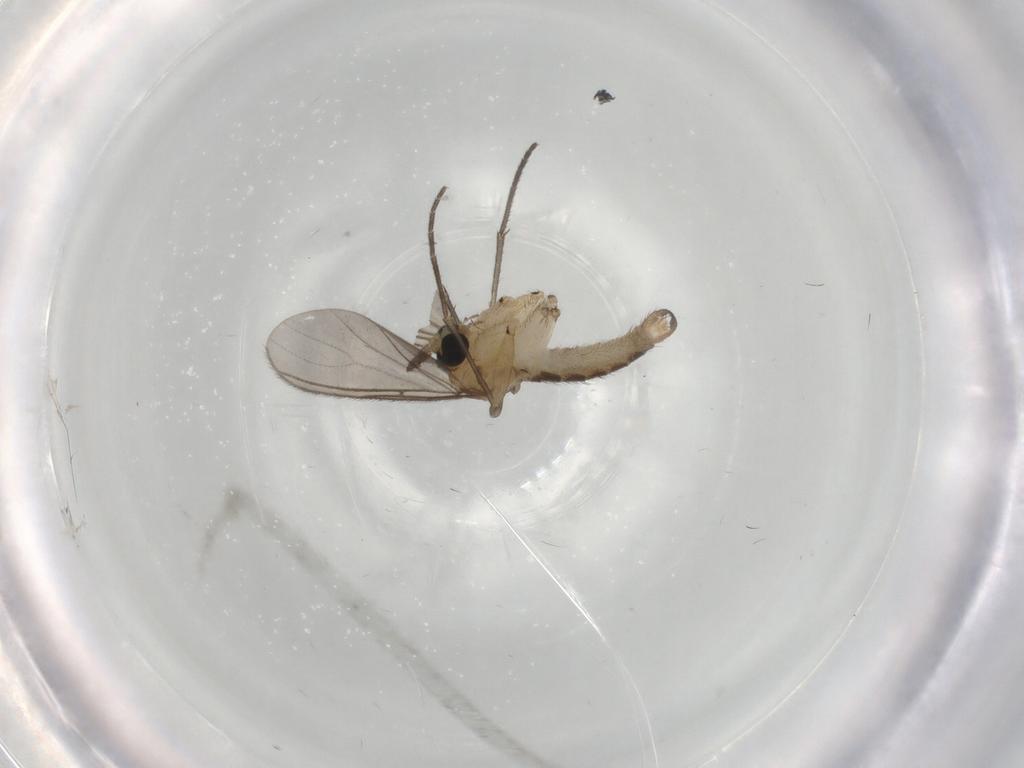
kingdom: Animalia
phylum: Arthropoda
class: Insecta
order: Diptera
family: Sciaridae
